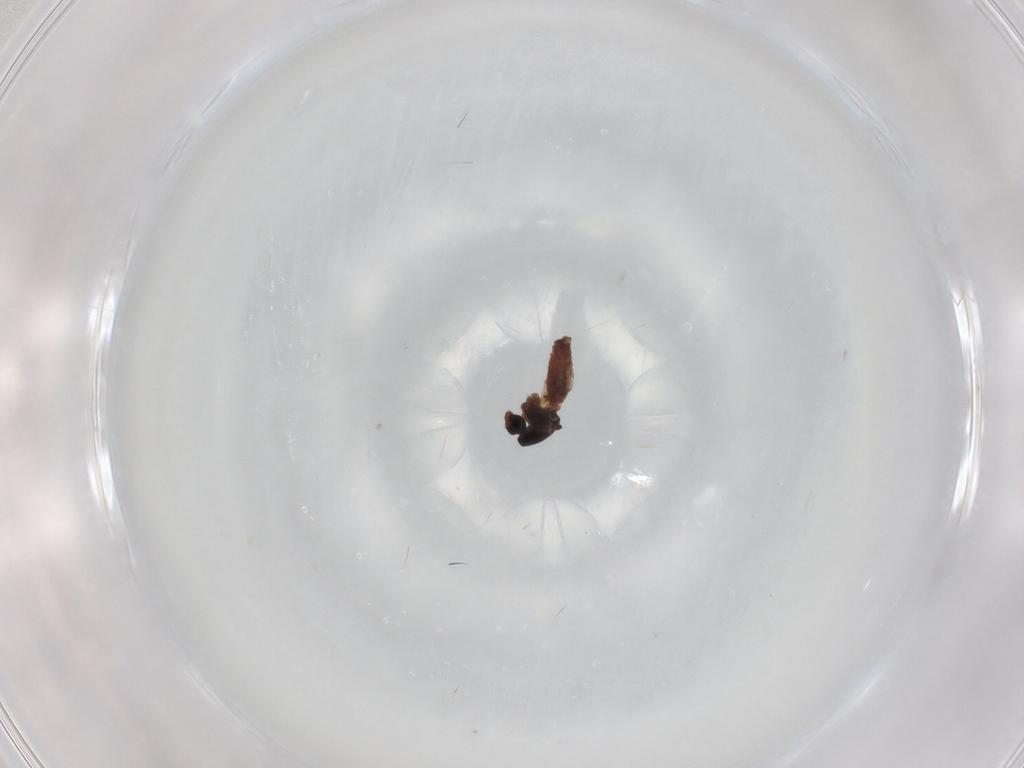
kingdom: Animalia
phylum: Arthropoda
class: Insecta
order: Diptera
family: Ceratopogonidae
